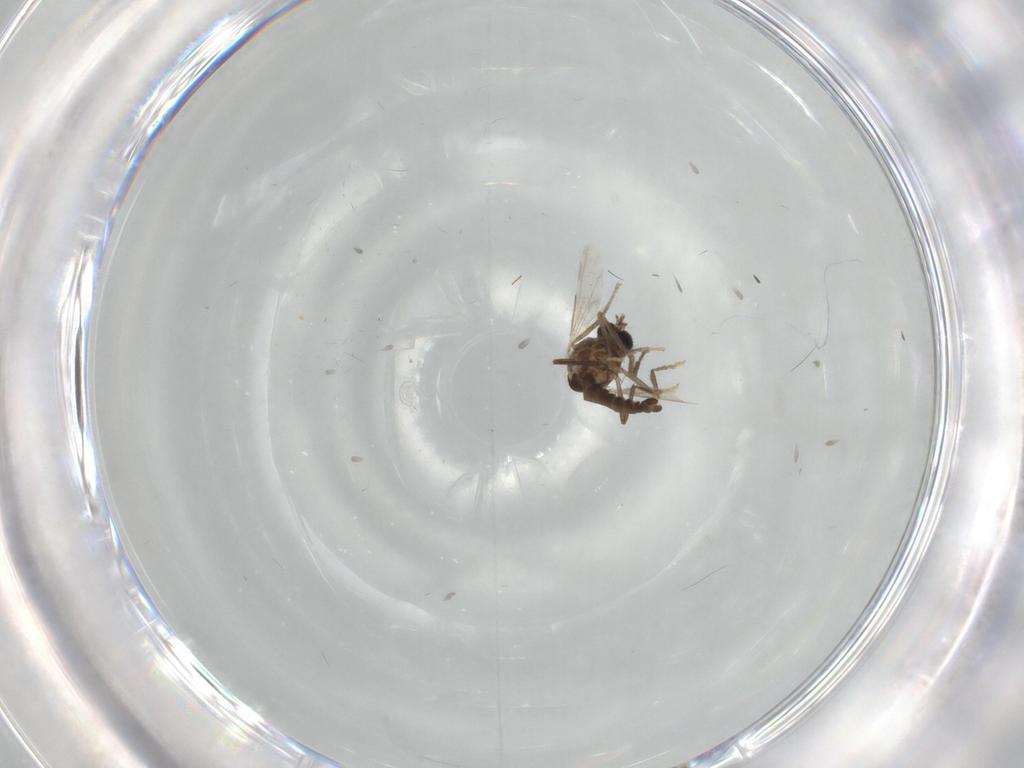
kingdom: Animalia
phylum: Arthropoda
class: Insecta
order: Diptera
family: Ceratopogonidae
